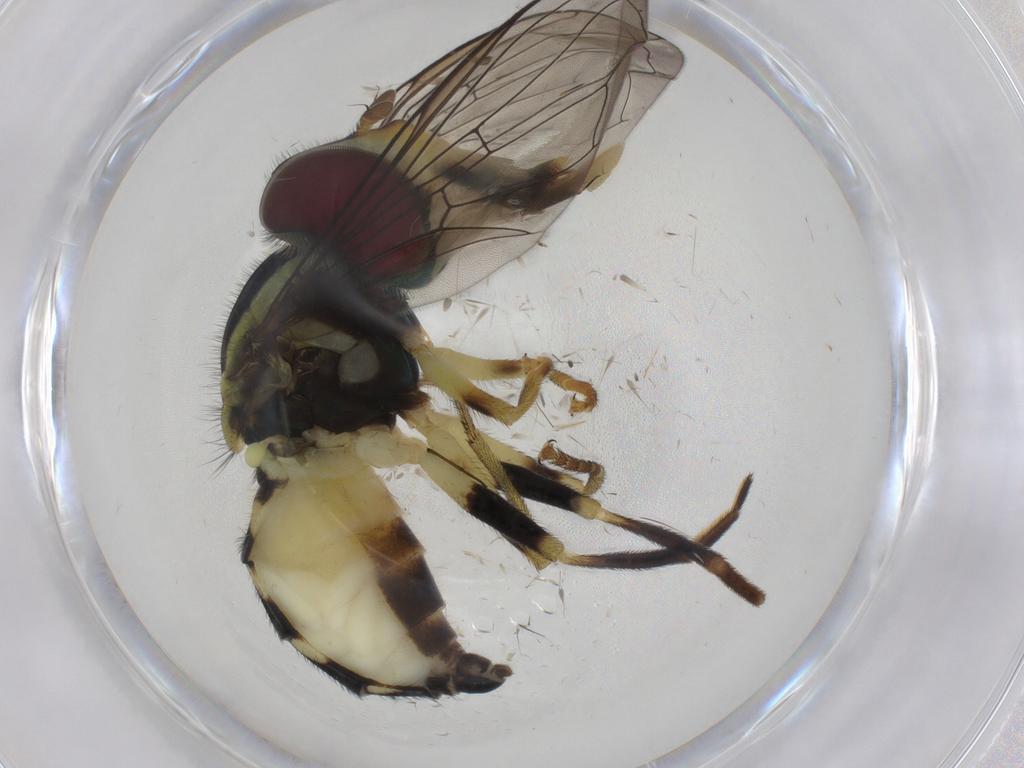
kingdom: Animalia
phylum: Arthropoda
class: Insecta
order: Diptera
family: Syrphidae
